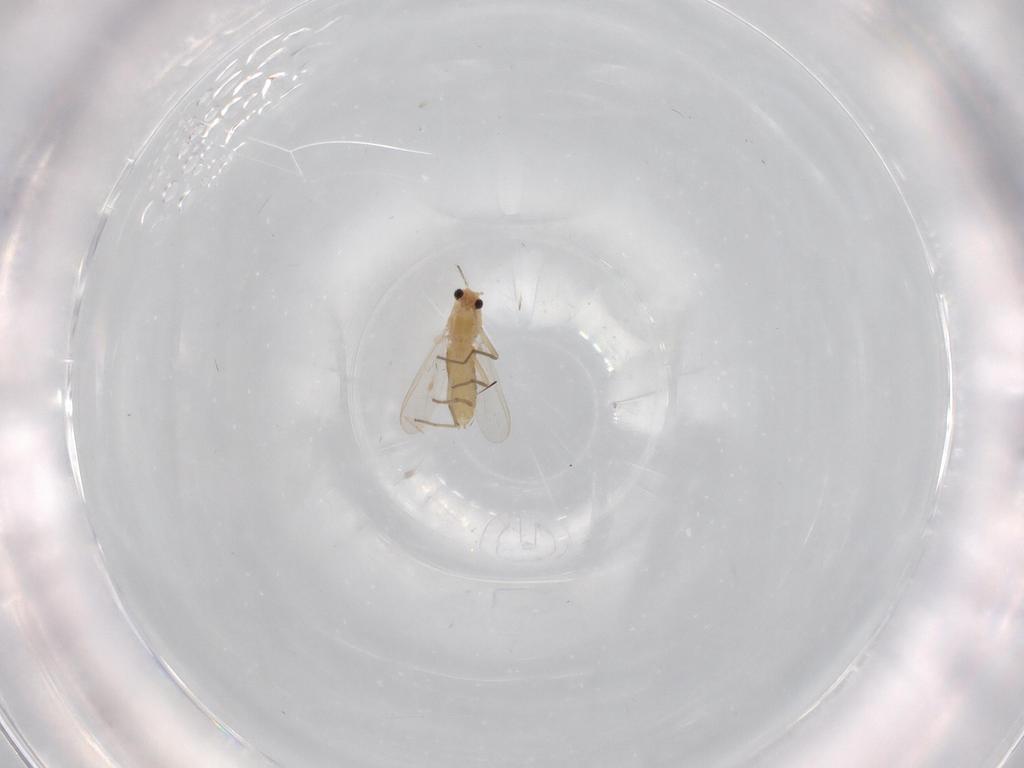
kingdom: Animalia
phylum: Arthropoda
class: Insecta
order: Diptera
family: Chironomidae
